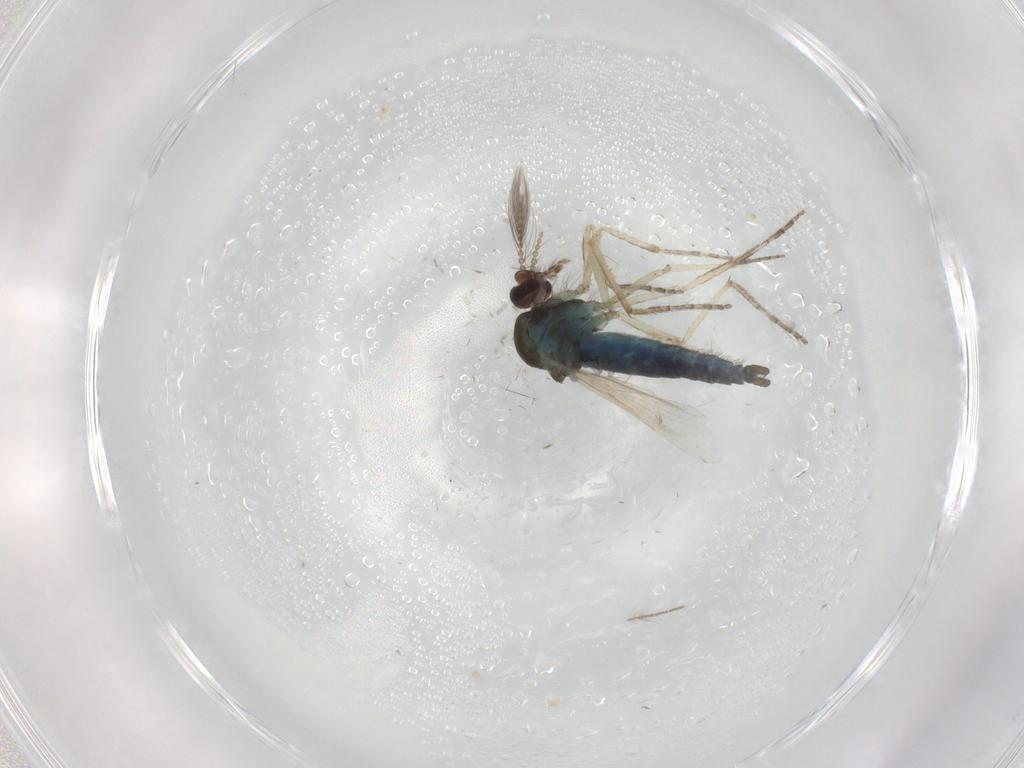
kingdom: Animalia
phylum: Arthropoda
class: Insecta
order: Diptera
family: Ceratopogonidae
